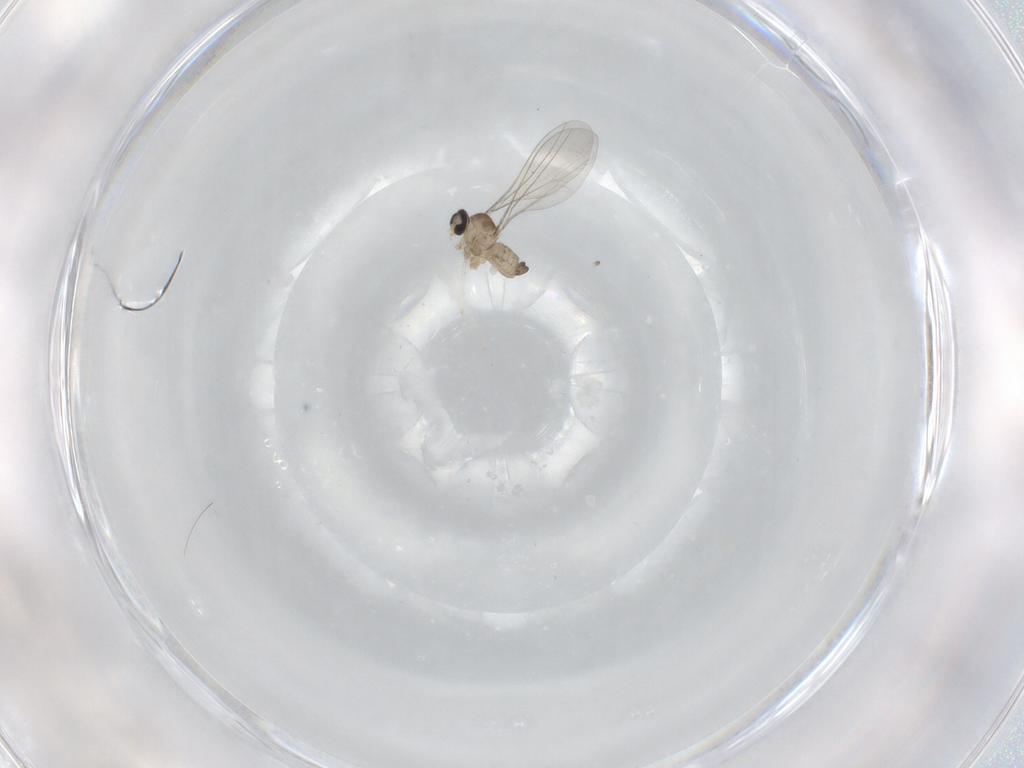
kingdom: Animalia
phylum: Arthropoda
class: Insecta
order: Diptera
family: Cecidomyiidae
